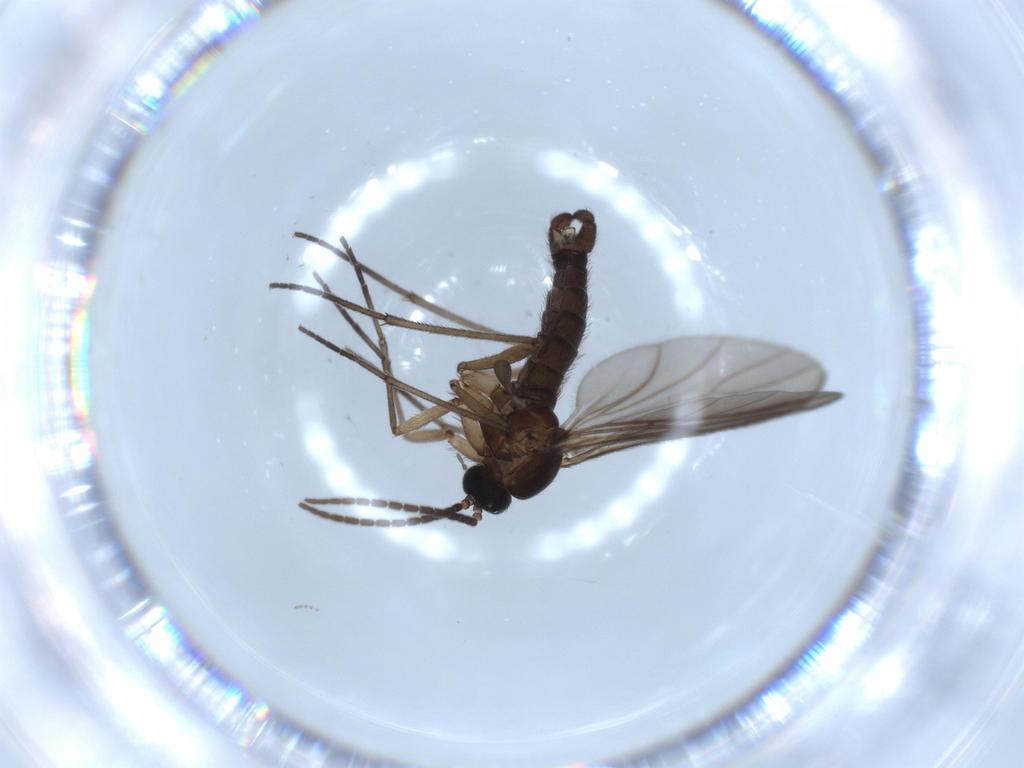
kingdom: Animalia
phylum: Arthropoda
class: Insecta
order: Diptera
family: Sciaridae
